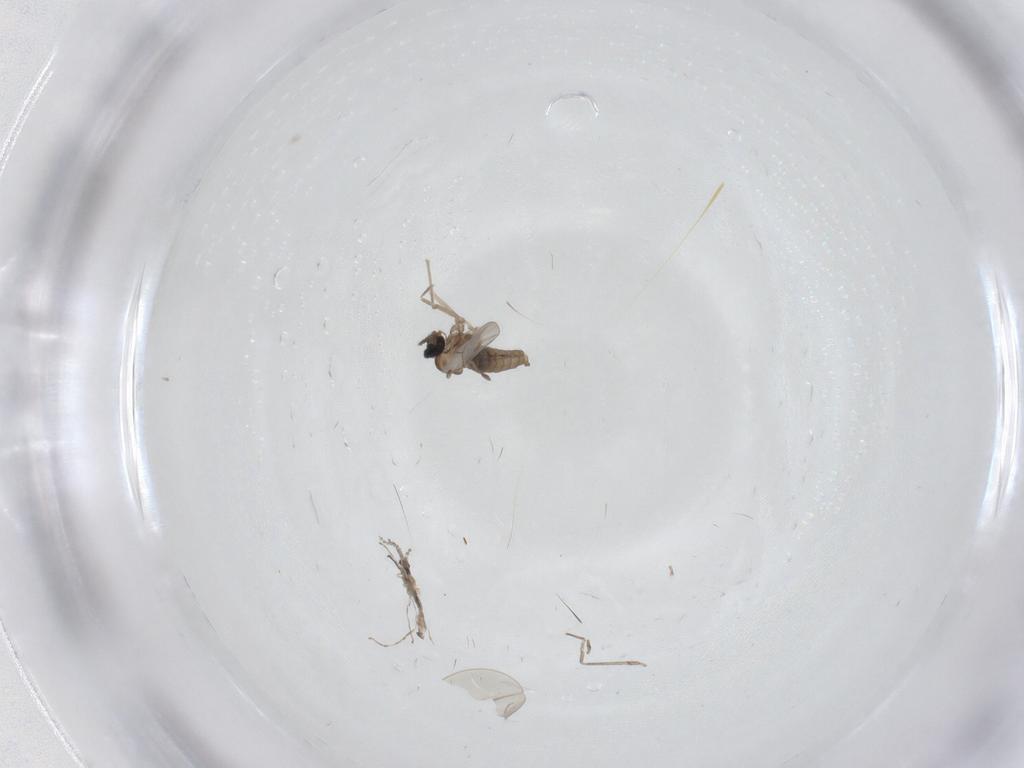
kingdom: Animalia
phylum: Arthropoda
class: Insecta
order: Diptera
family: Cecidomyiidae
